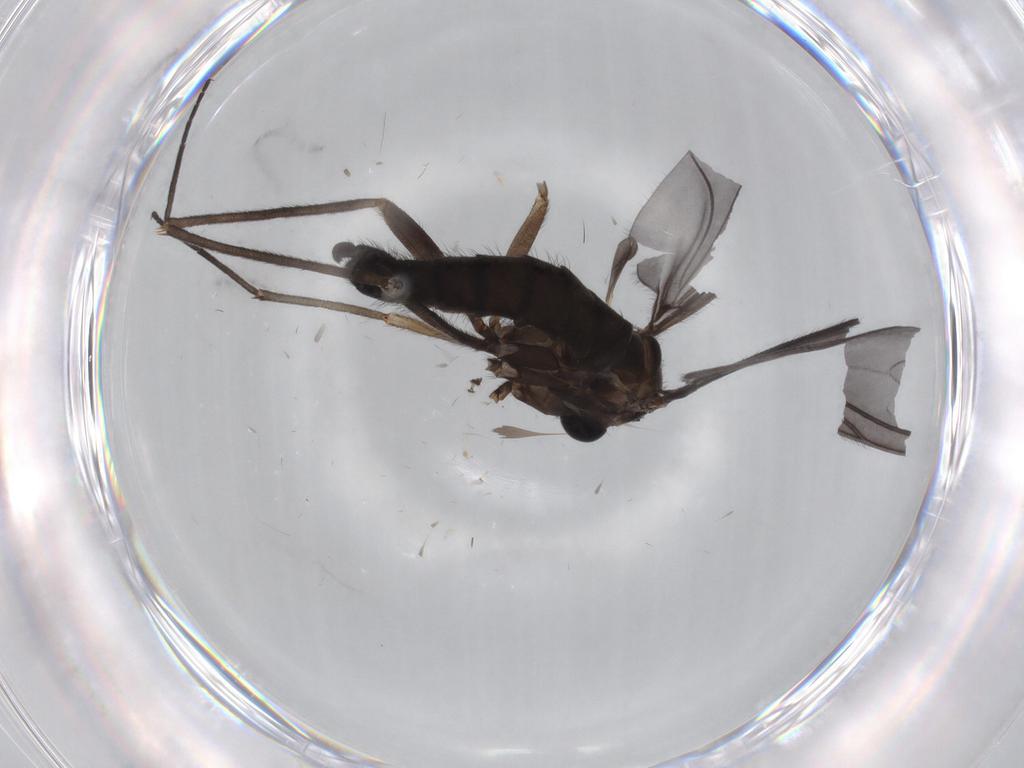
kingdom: Animalia
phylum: Arthropoda
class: Insecta
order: Diptera
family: Sciaridae
